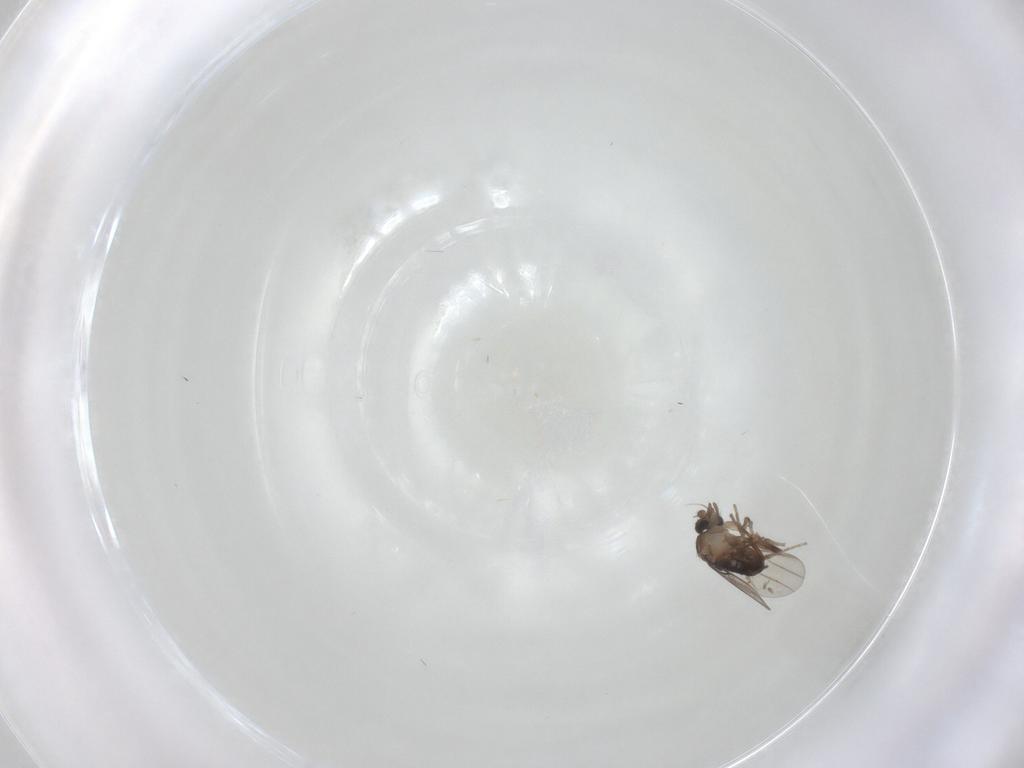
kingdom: Animalia
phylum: Arthropoda
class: Insecta
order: Diptera
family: Phoridae
